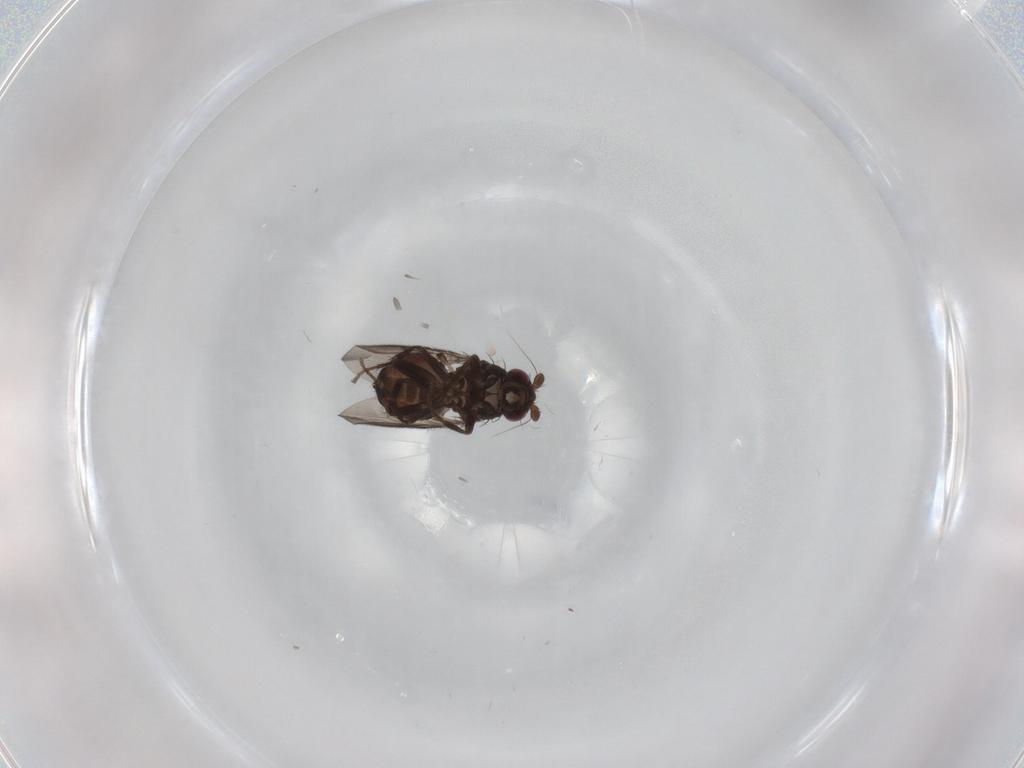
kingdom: Animalia
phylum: Arthropoda
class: Insecta
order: Diptera
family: Sphaeroceridae
